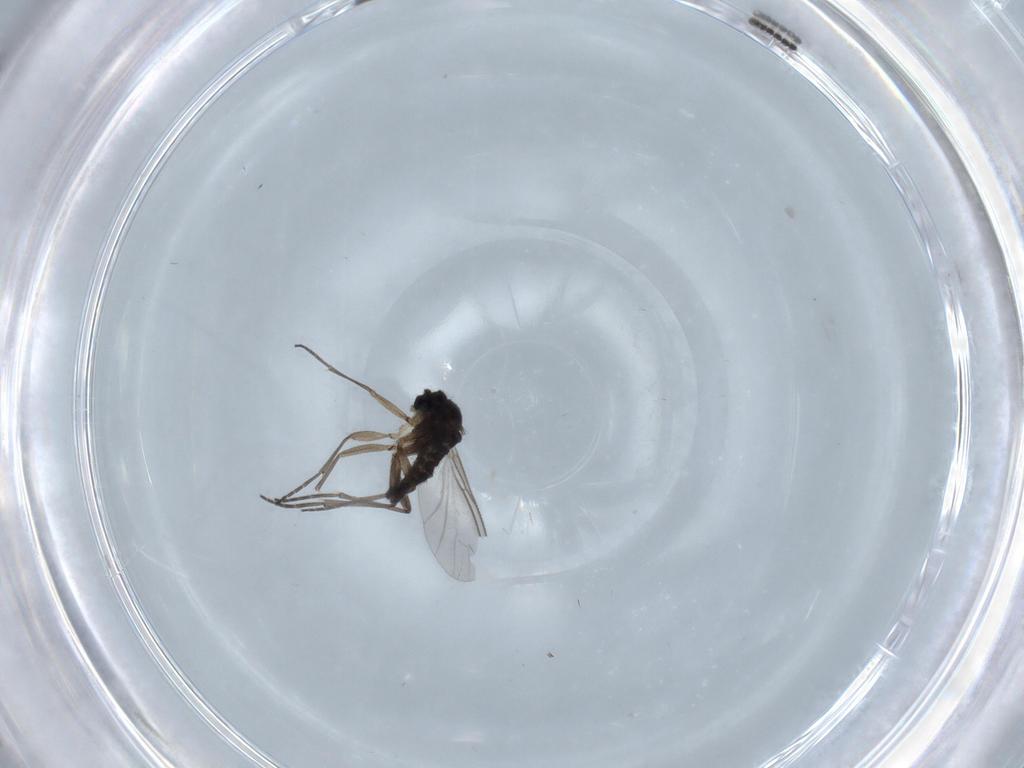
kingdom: Animalia
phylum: Arthropoda
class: Insecta
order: Diptera
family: Sciaridae
